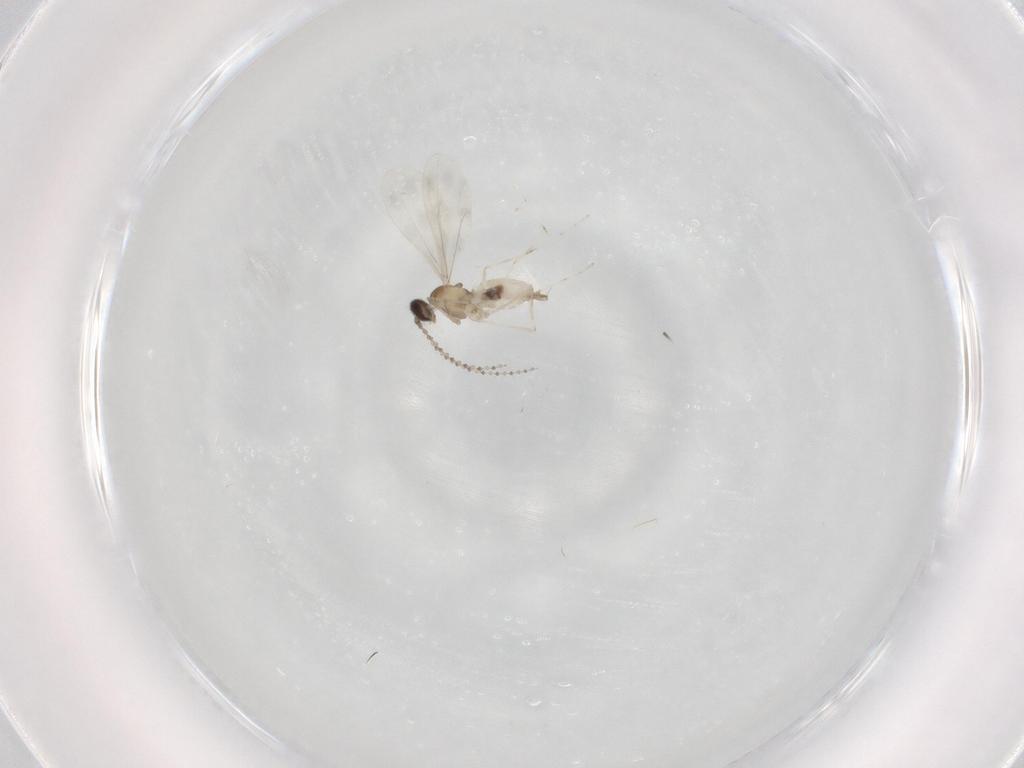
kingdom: Animalia
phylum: Arthropoda
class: Insecta
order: Diptera
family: Cecidomyiidae
